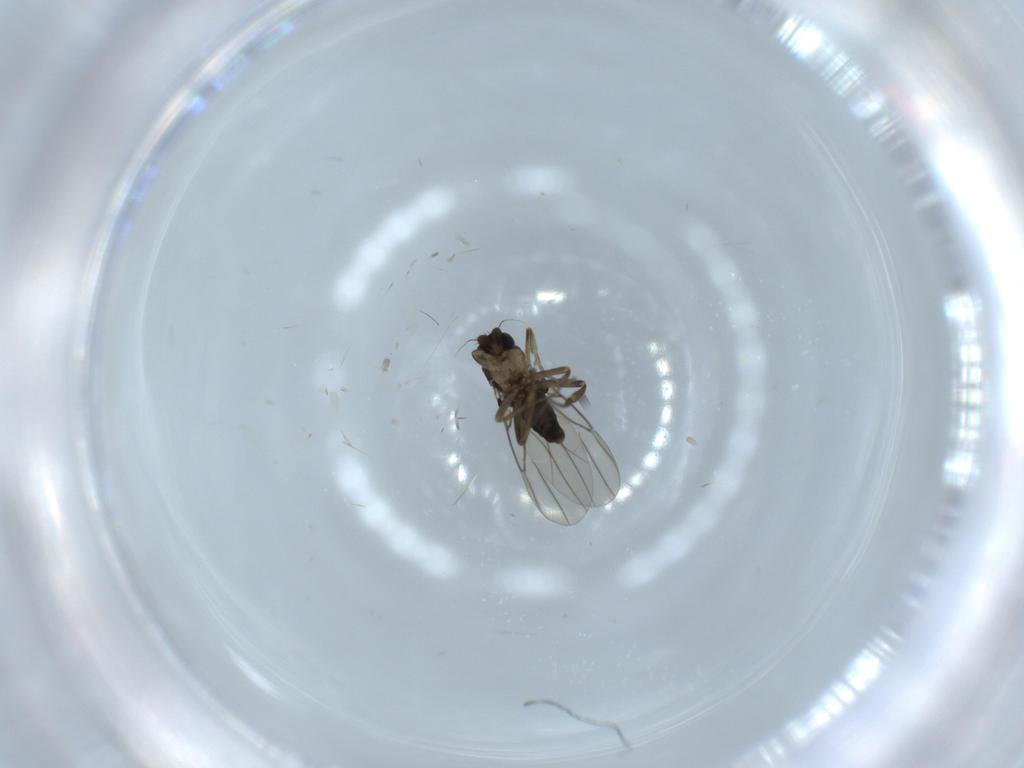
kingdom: Animalia
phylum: Arthropoda
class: Insecta
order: Diptera
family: Phoridae
